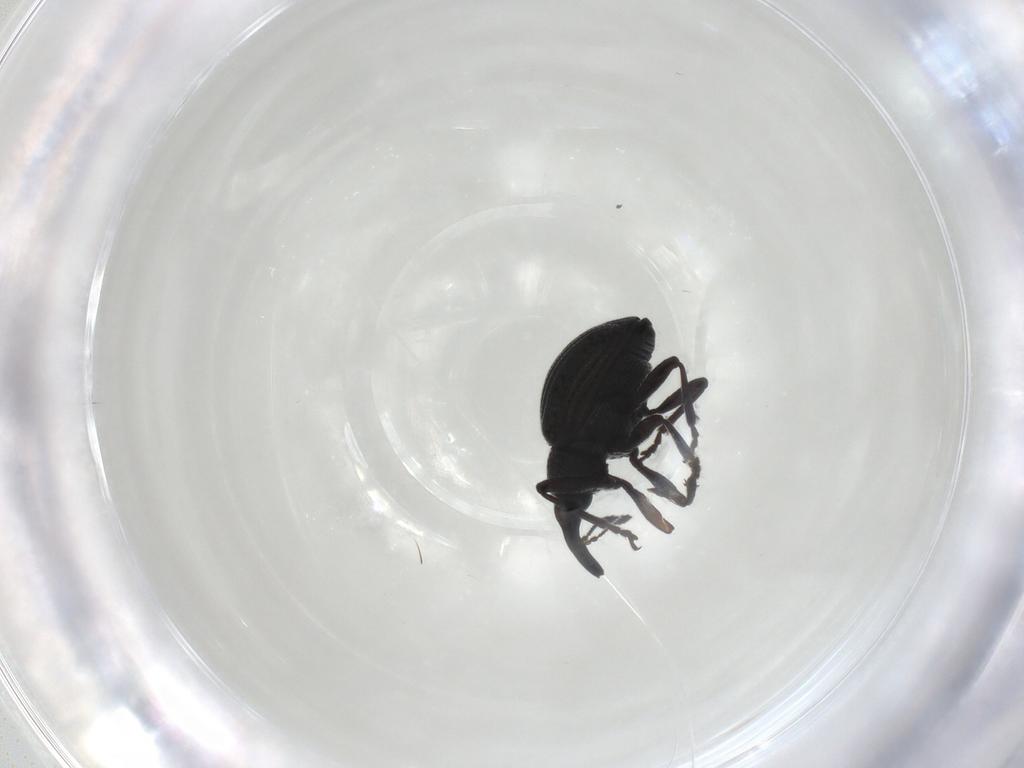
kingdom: Animalia
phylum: Arthropoda
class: Insecta
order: Coleoptera
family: Brentidae
